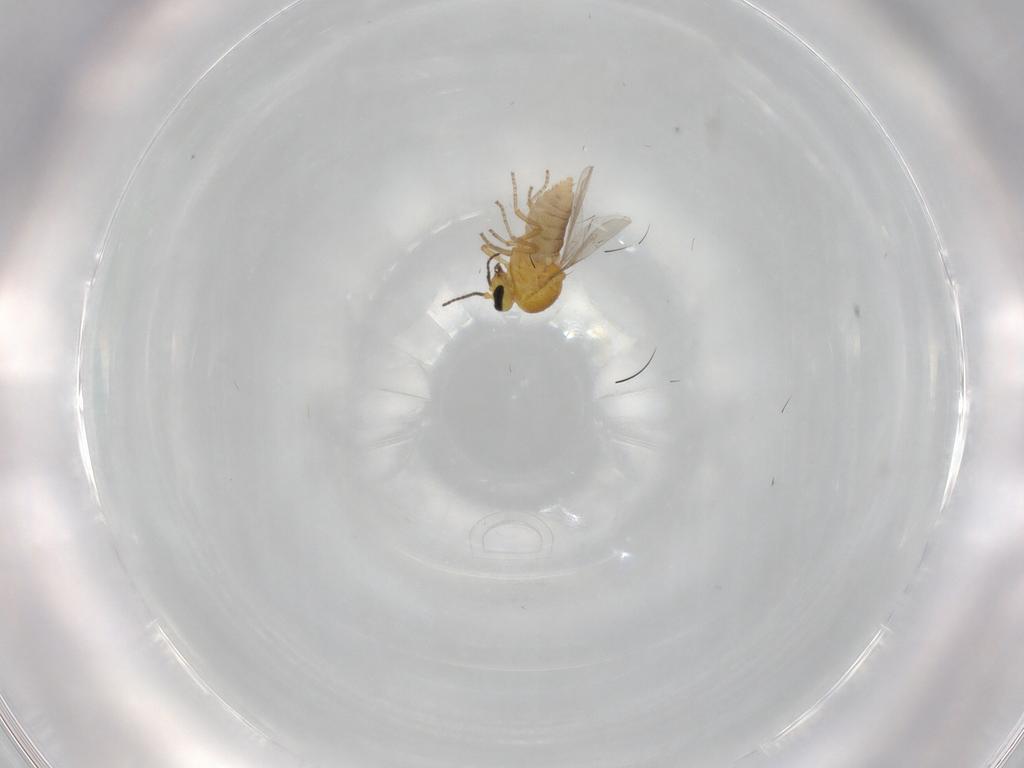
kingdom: Animalia
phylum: Arthropoda
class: Insecta
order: Diptera
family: Ceratopogonidae
